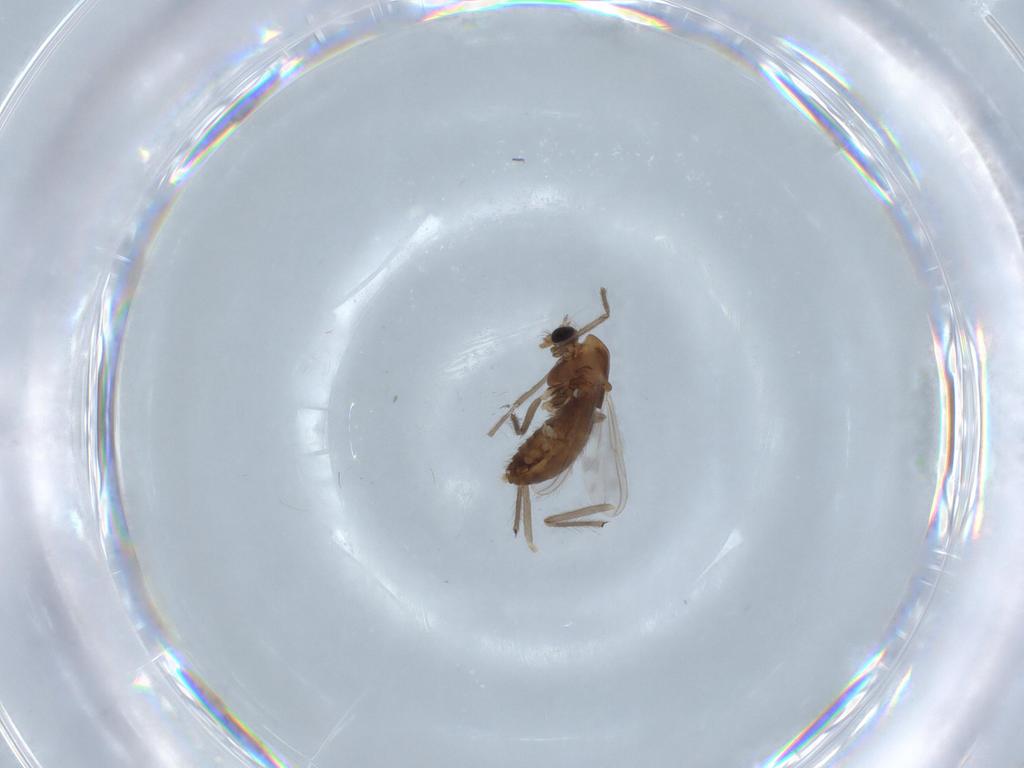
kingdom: Animalia
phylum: Arthropoda
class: Insecta
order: Diptera
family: Chironomidae
